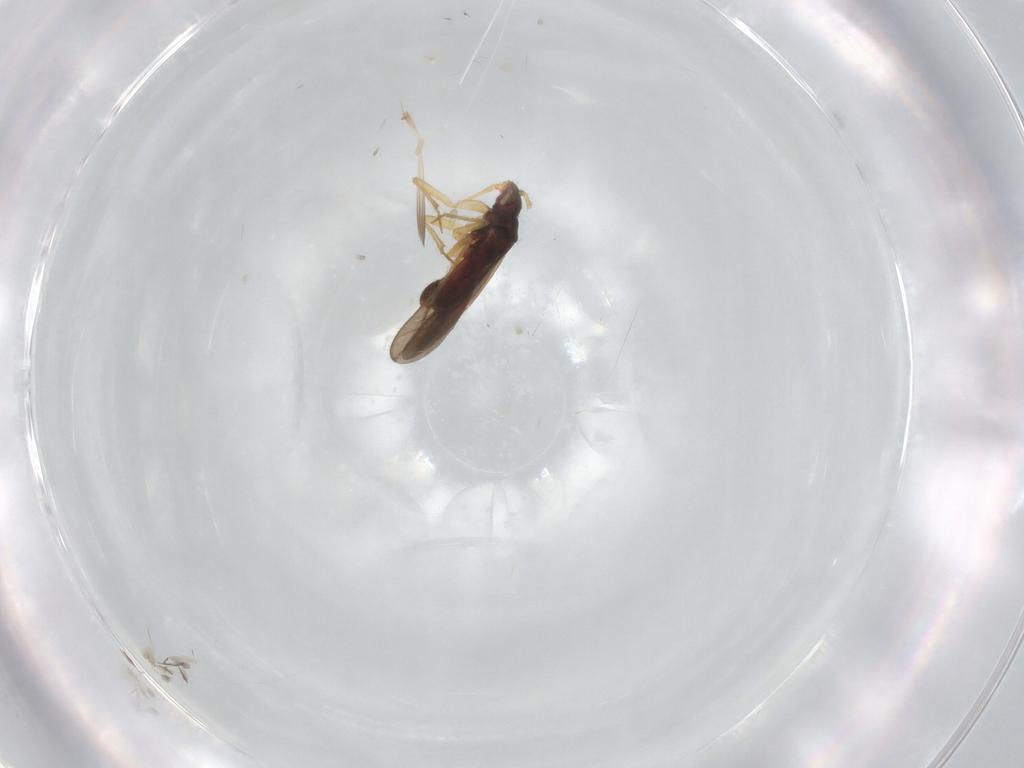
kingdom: Animalia
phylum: Arthropoda
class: Insecta
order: Hemiptera
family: Ceratocombidae
